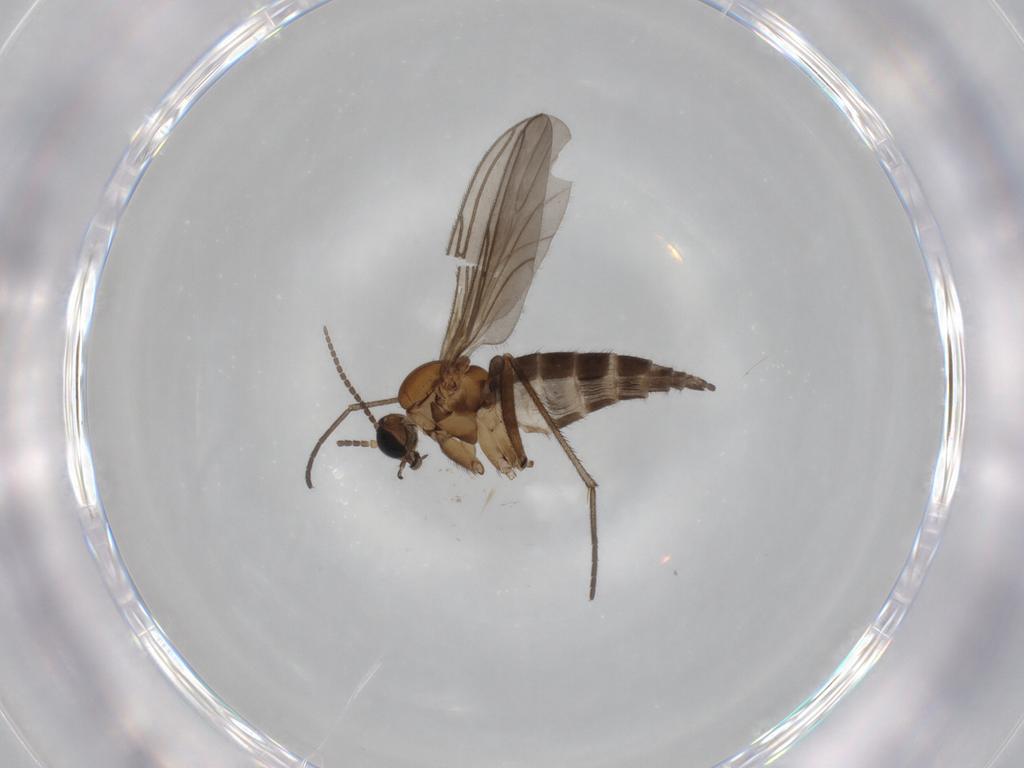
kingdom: Animalia
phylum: Arthropoda
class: Insecta
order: Diptera
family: Sciaridae
